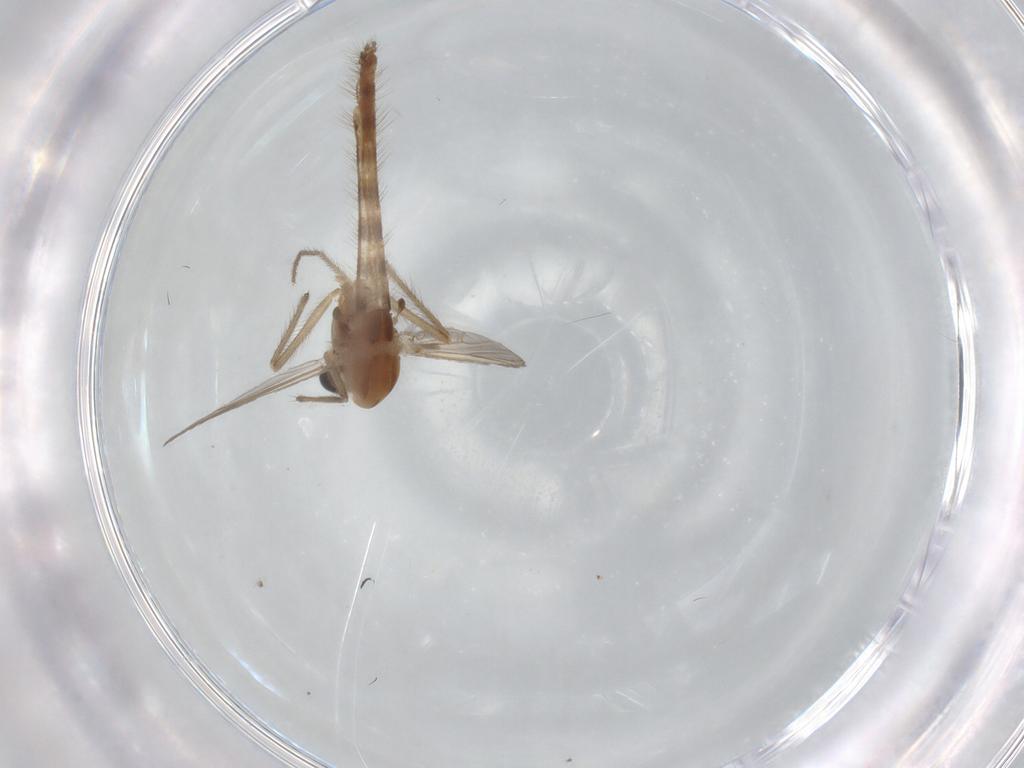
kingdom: Animalia
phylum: Arthropoda
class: Insecta
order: Diptera
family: Chironomidae
